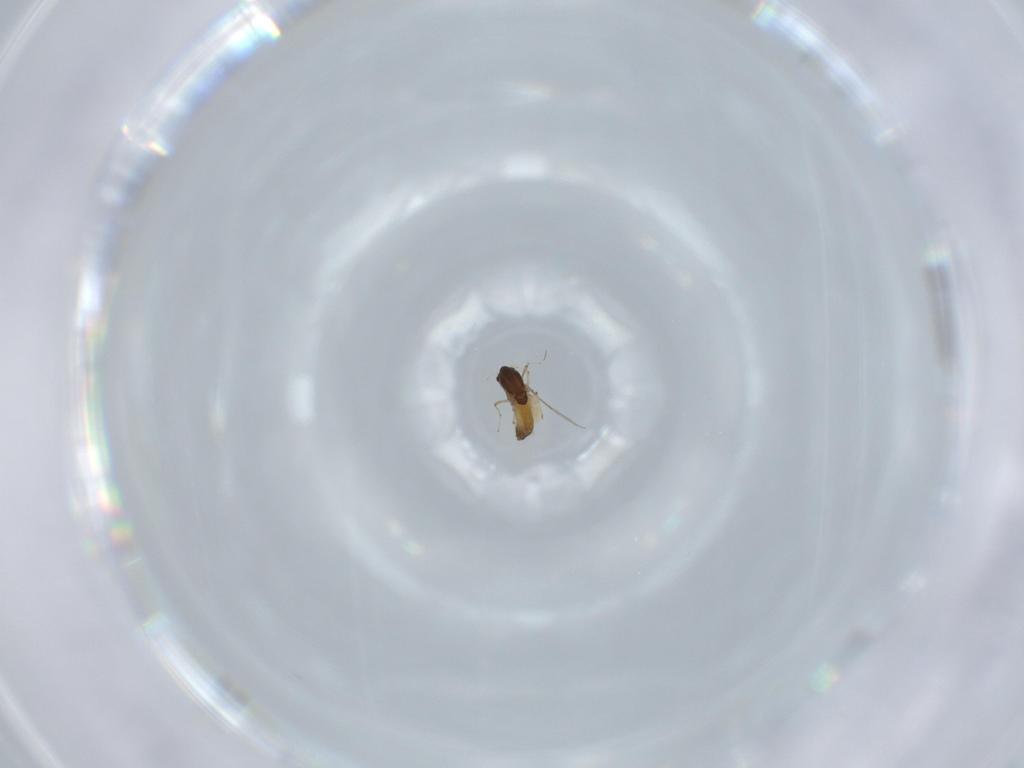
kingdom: Animalia
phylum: Arthropoda
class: Insecta
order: Diptera
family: Chironomidae
